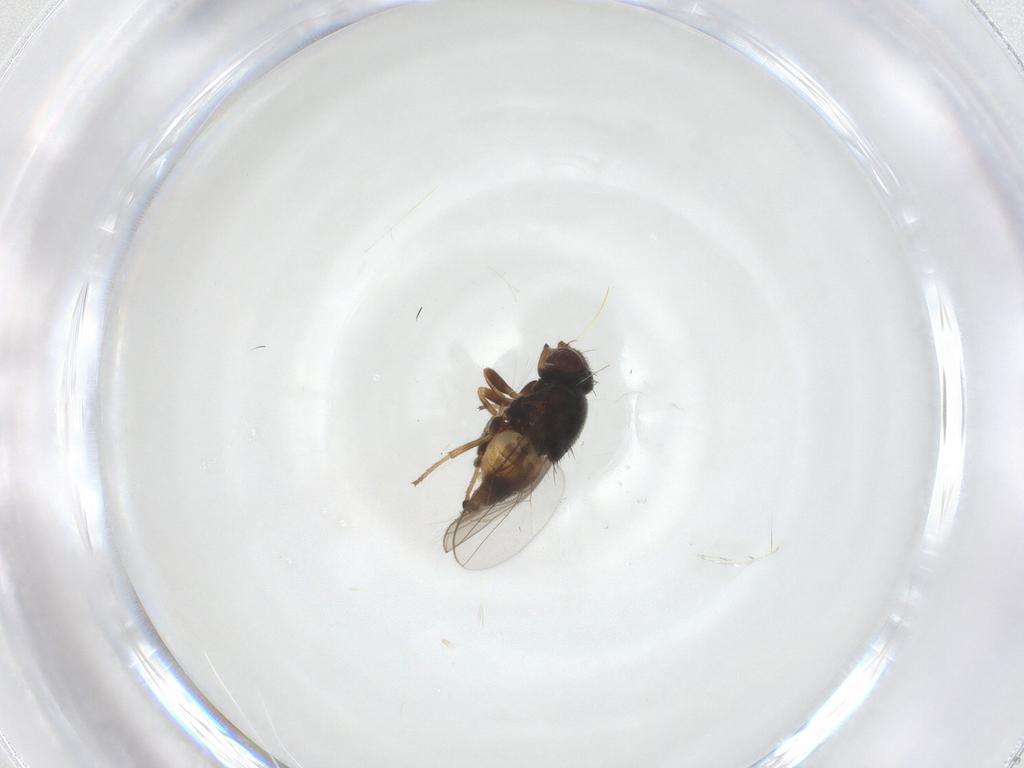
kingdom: Animalia
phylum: Arthropoda
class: Insecta
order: Diptera
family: Chloropidae
